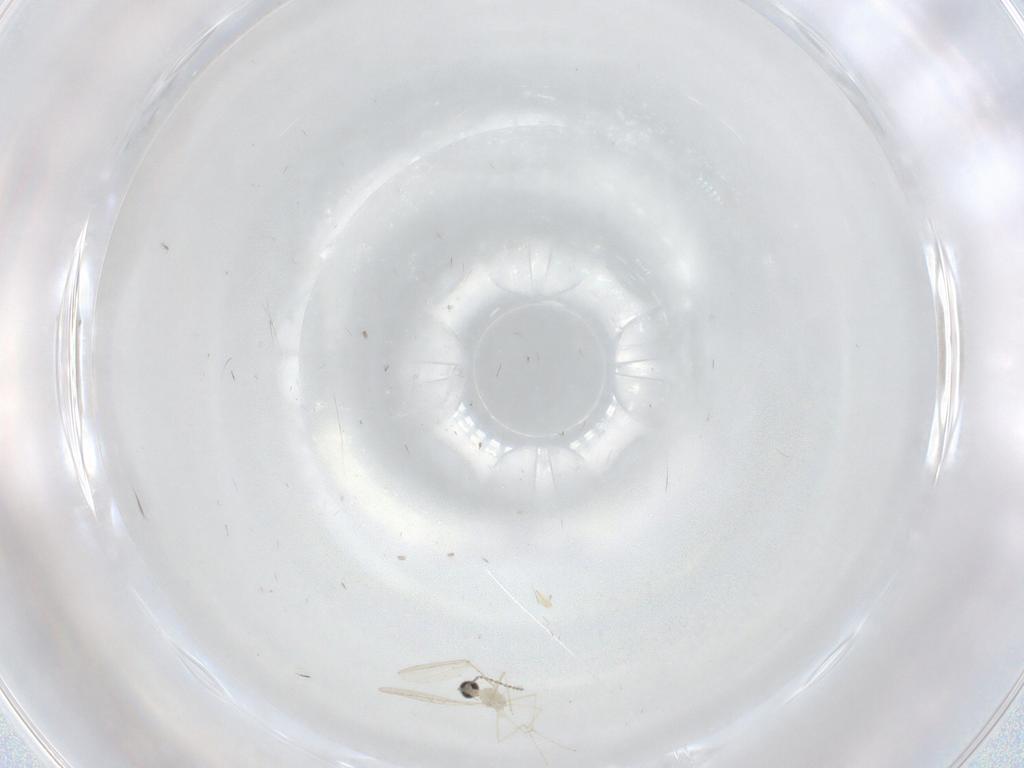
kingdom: Animalia
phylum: Arthropoda
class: Insecta
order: Diptera
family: Cecidomyiidae
